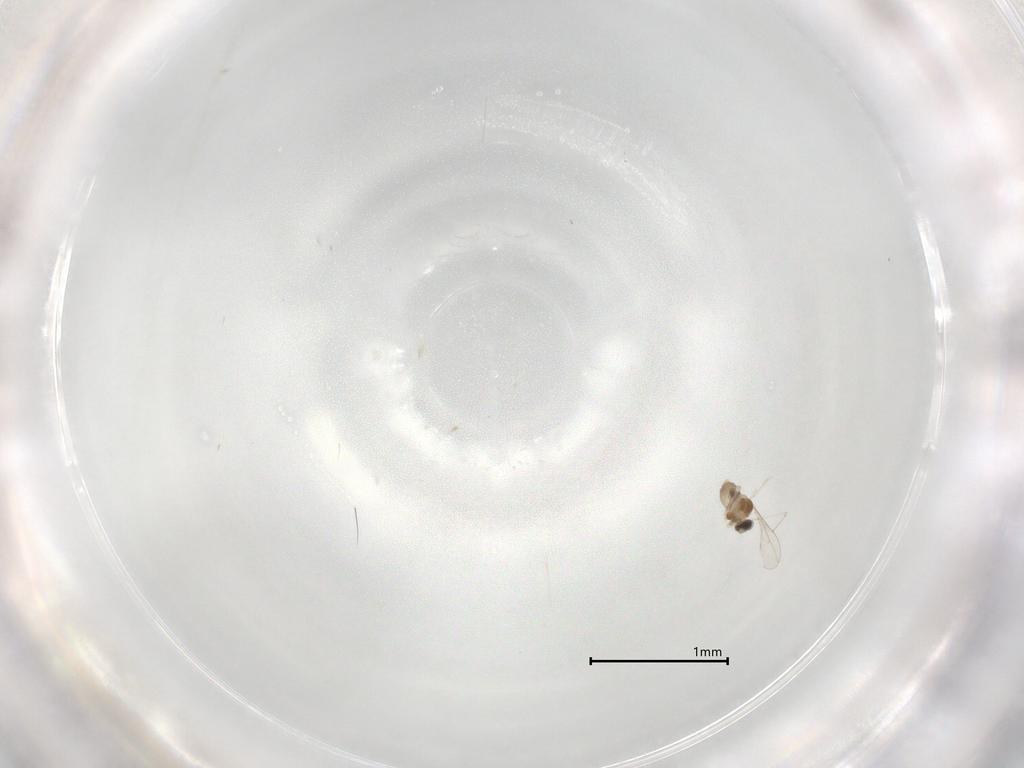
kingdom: Animalia
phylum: Arthropoda
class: Insecta
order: Diptera
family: Cecidomyiidae
